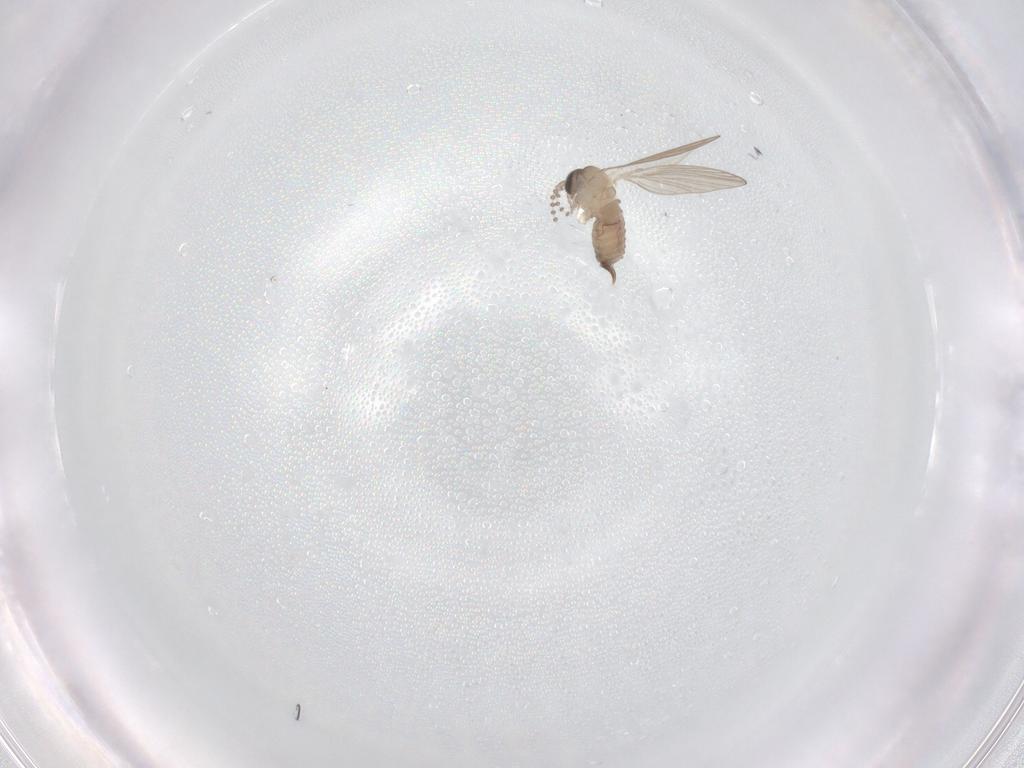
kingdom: Animalia
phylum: Arthropoda
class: Insecta
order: Diptera
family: Psychodidae
